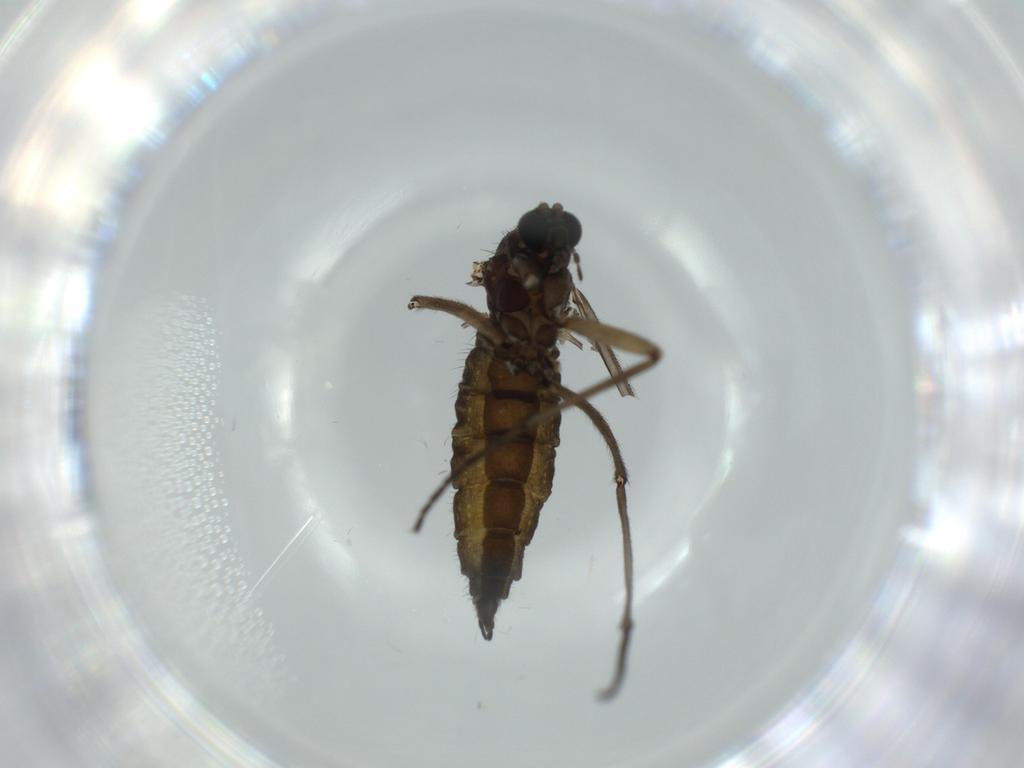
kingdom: Animalia
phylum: Arthropoda
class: Insecta
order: Diptera
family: Sciaridae
